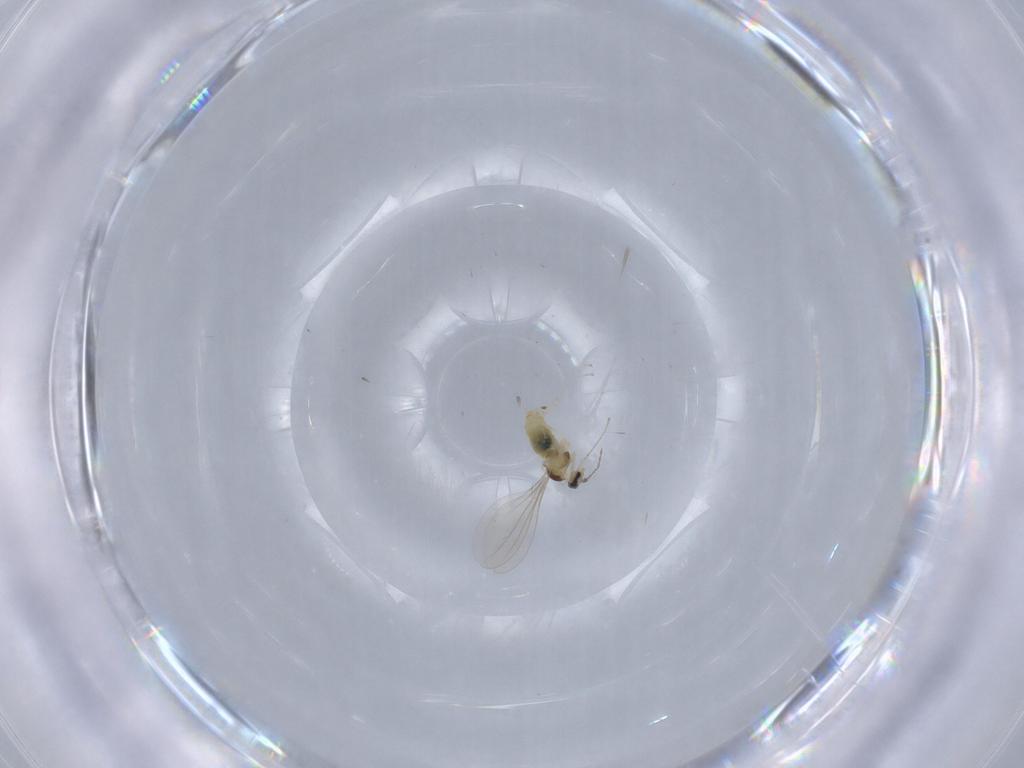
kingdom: Animalia
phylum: Arthropoda
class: Insecta
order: Diptera
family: Cecidomyiidae
